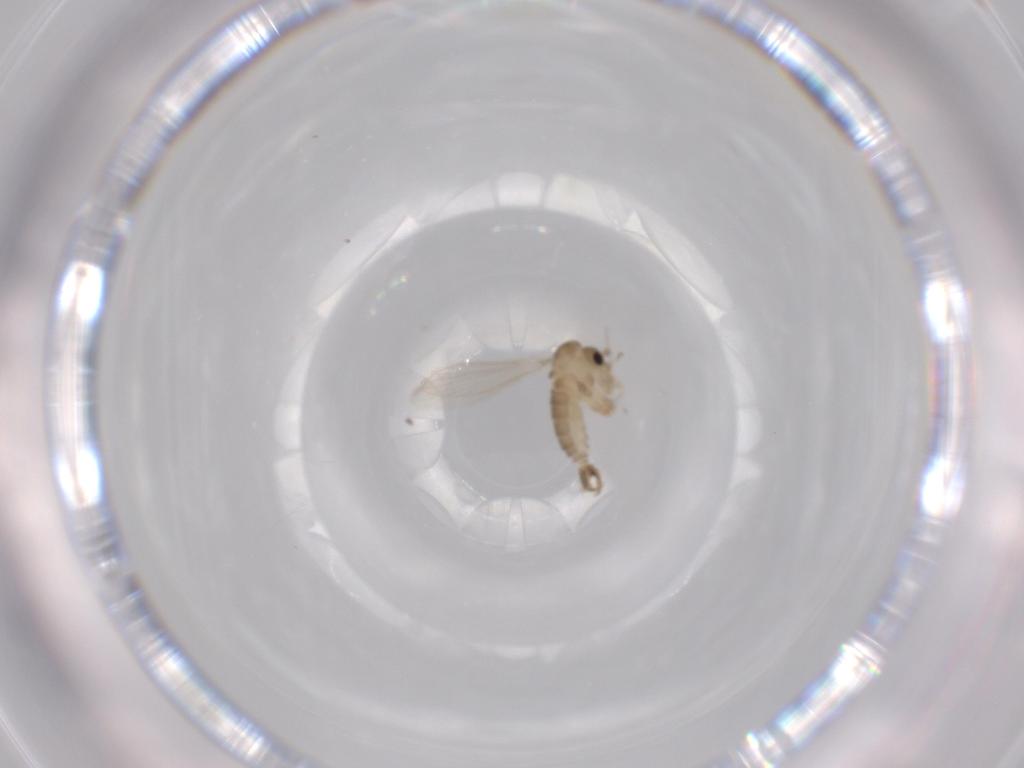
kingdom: Animalia
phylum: Arthropoda
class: Insecta
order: Diptera
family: Psychodidae
